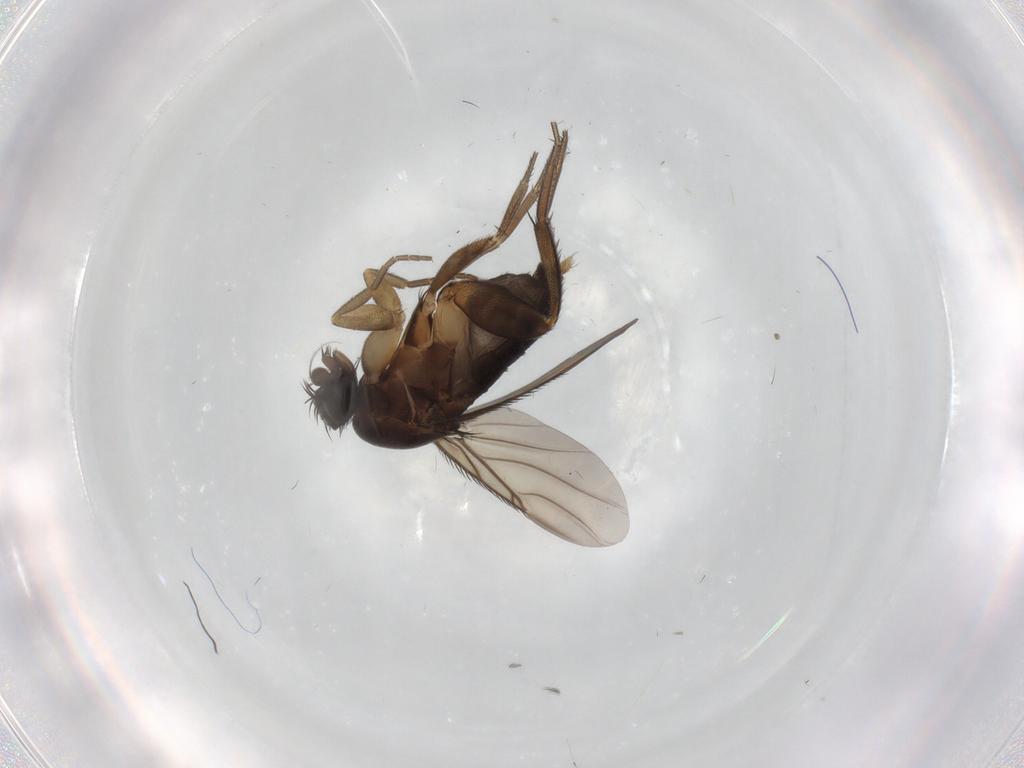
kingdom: Animalia
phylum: Arthropoda
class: Insecta
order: Diptera
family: Phoridae
